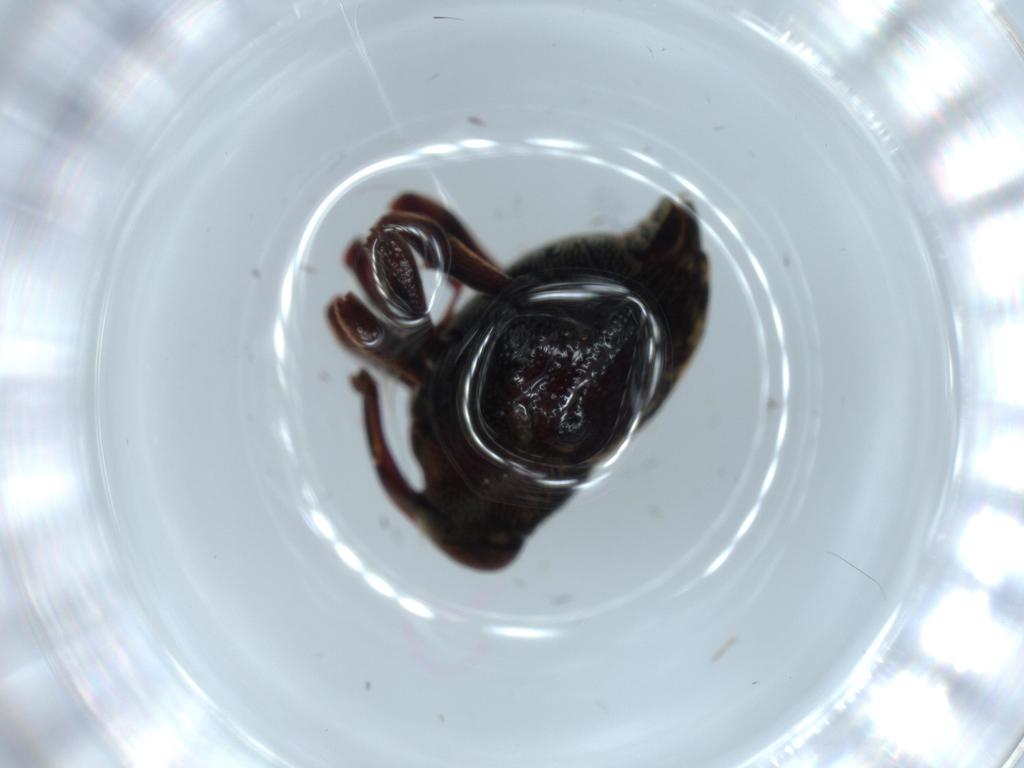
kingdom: Animalia
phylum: Arthropoda
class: Insecta
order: Coleoptera
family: Curculionidae
